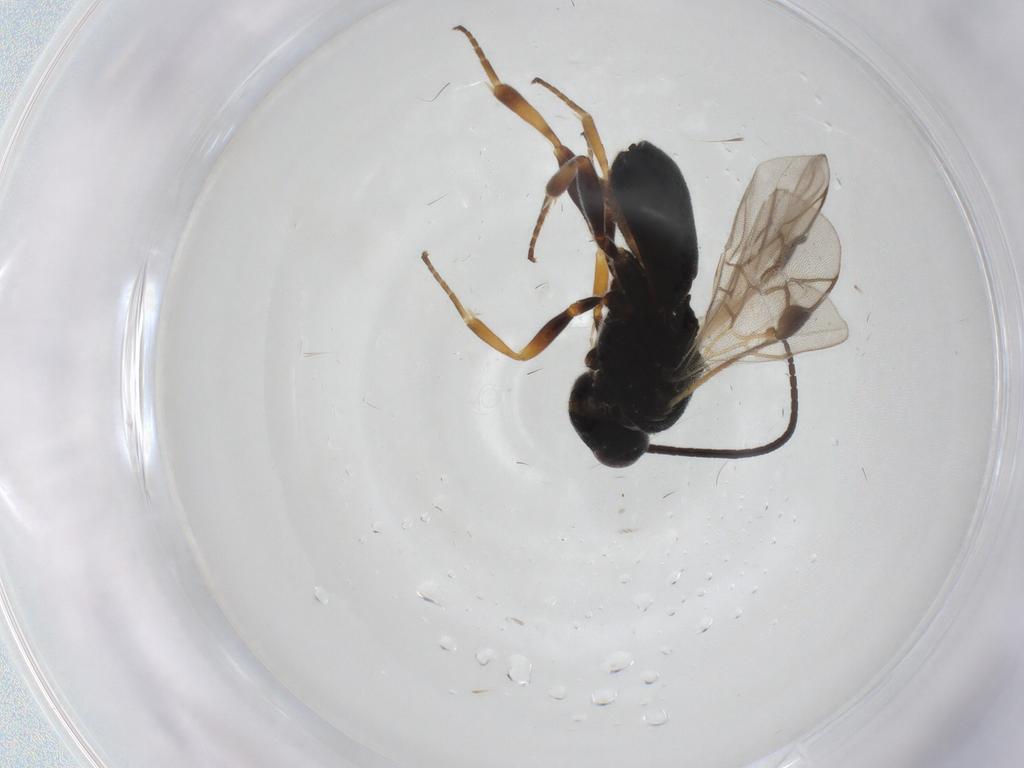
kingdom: Animalia
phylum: Arthropoda
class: Insecta
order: Hymenoptera
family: Braconidae
